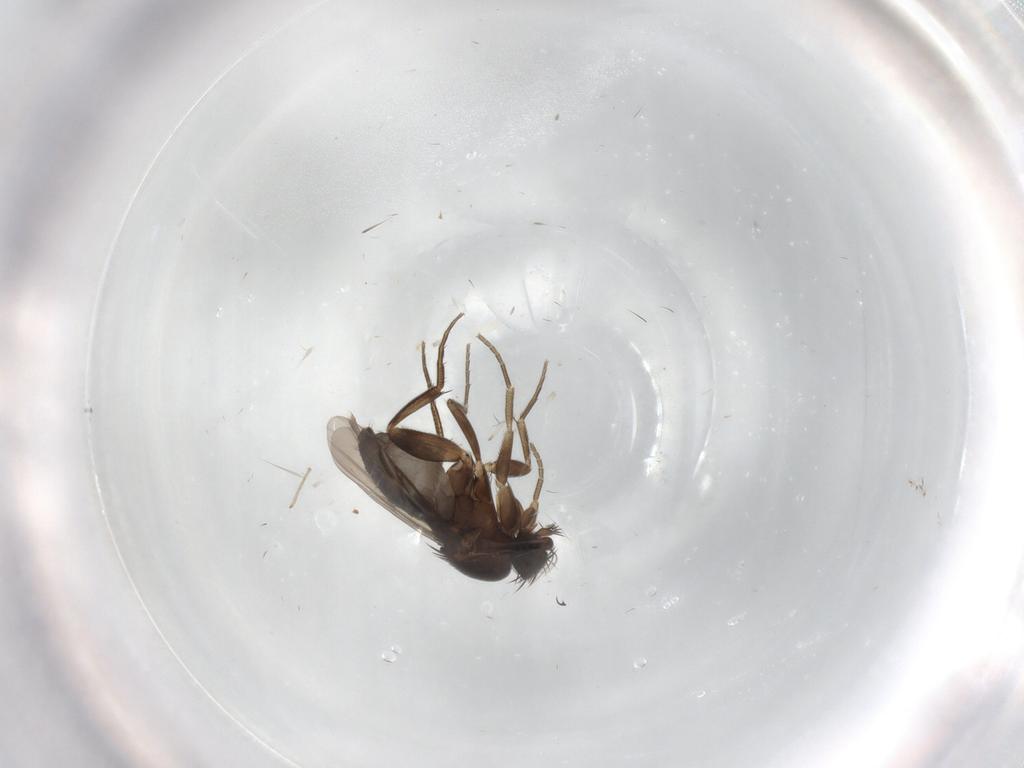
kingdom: Animalia
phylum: Arthropoda
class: Insecta
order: Diptera
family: Phoridae
